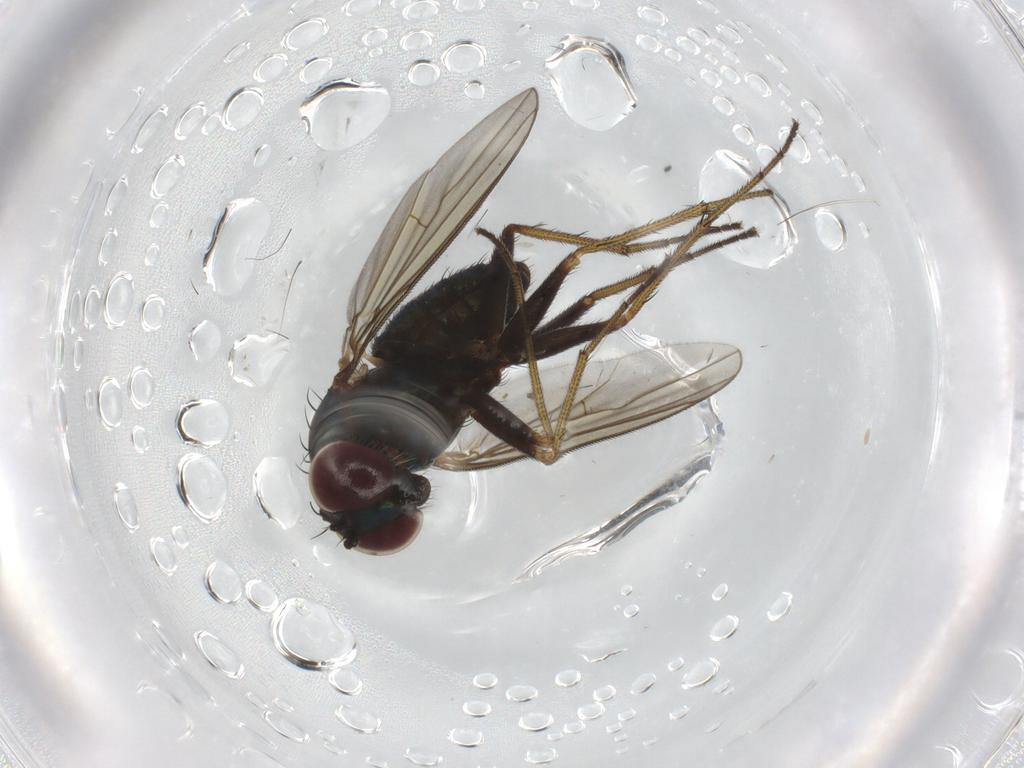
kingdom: Animalia
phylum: Arthropoda
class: Insecta
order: Diptera
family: Dolichopodidae
